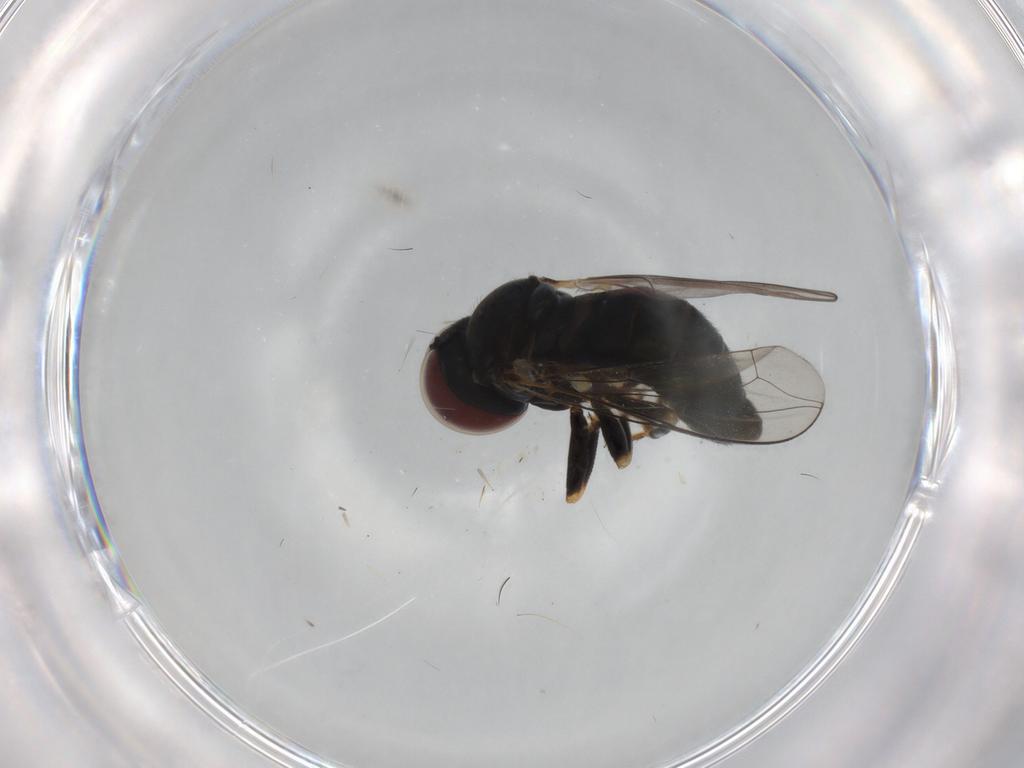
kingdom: Animalia
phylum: Arthropoda
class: Insecta
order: Diptera
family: Pipunculidae
